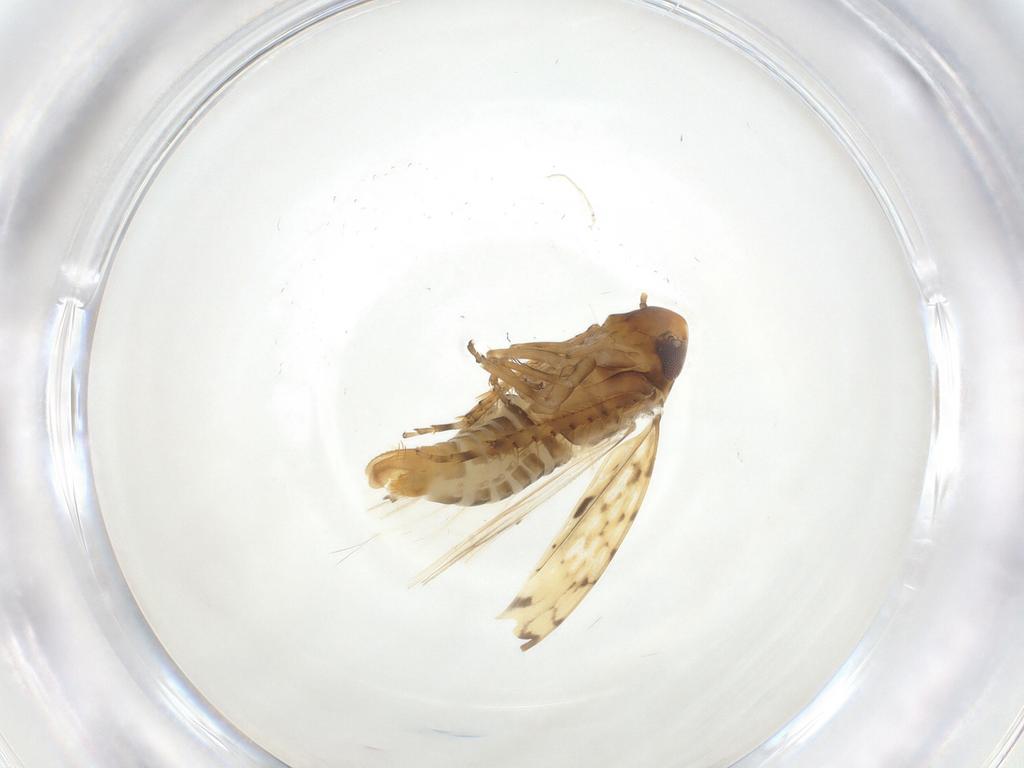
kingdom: Animalia
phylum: Arthropoda
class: Insecta
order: Hemiptera
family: Cicadellidae
